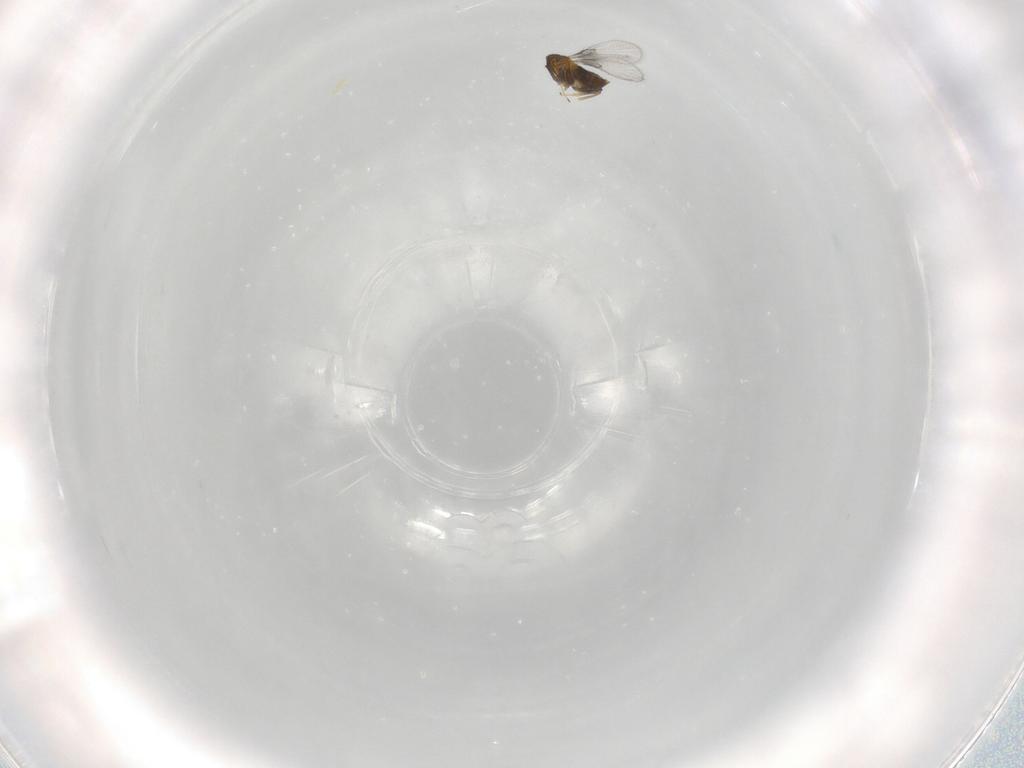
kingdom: Animalia
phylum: Arthropoda
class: Insecta
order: Hymenoptera
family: Trichogrammatidae
